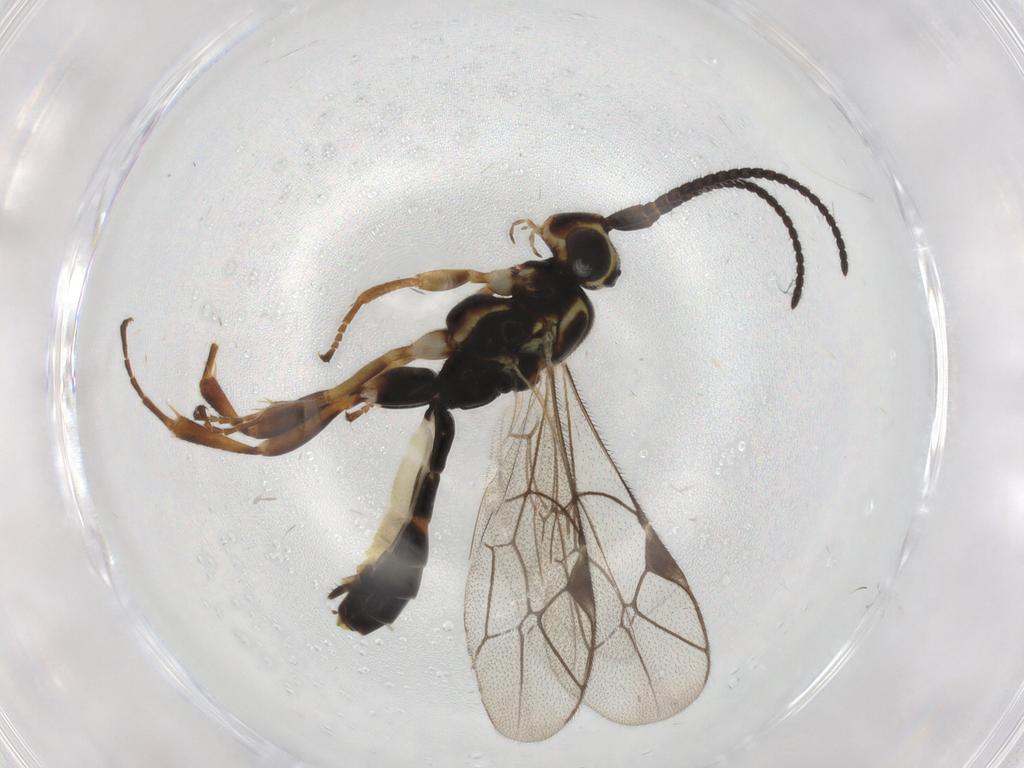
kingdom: Animalia
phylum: Arthropoda
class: Insecta
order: Hymenoptera
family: Ichneumonidae
